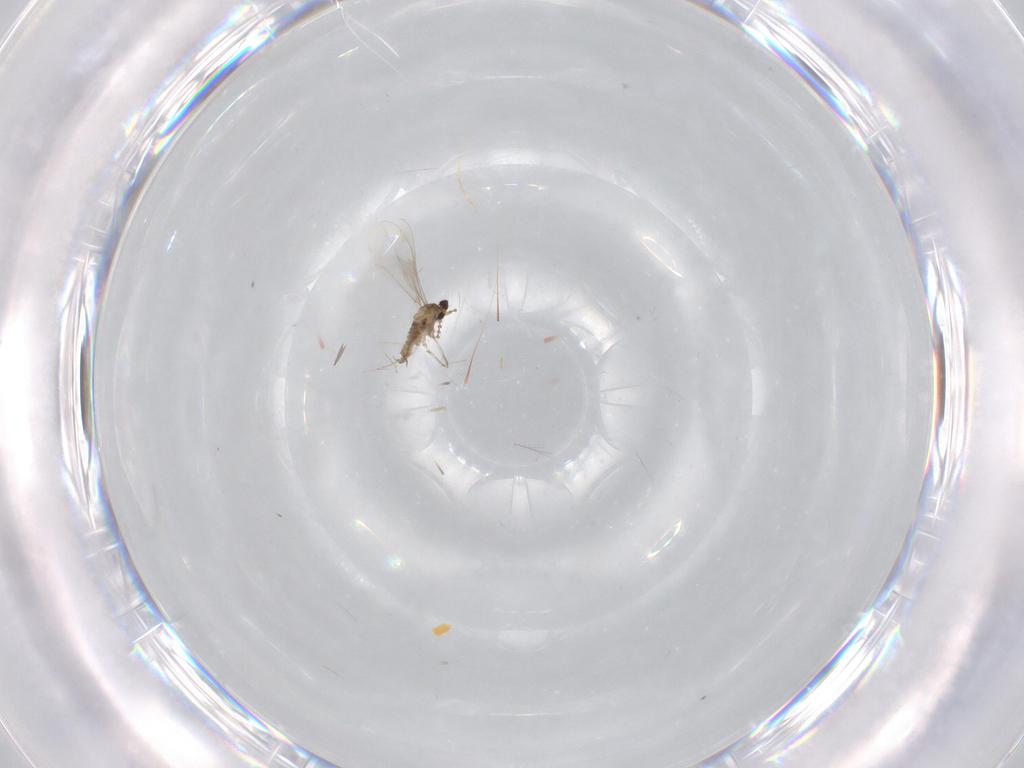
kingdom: Animalia
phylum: Arthropoda
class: Insecta
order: Diptera
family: Cecidomyiidae
